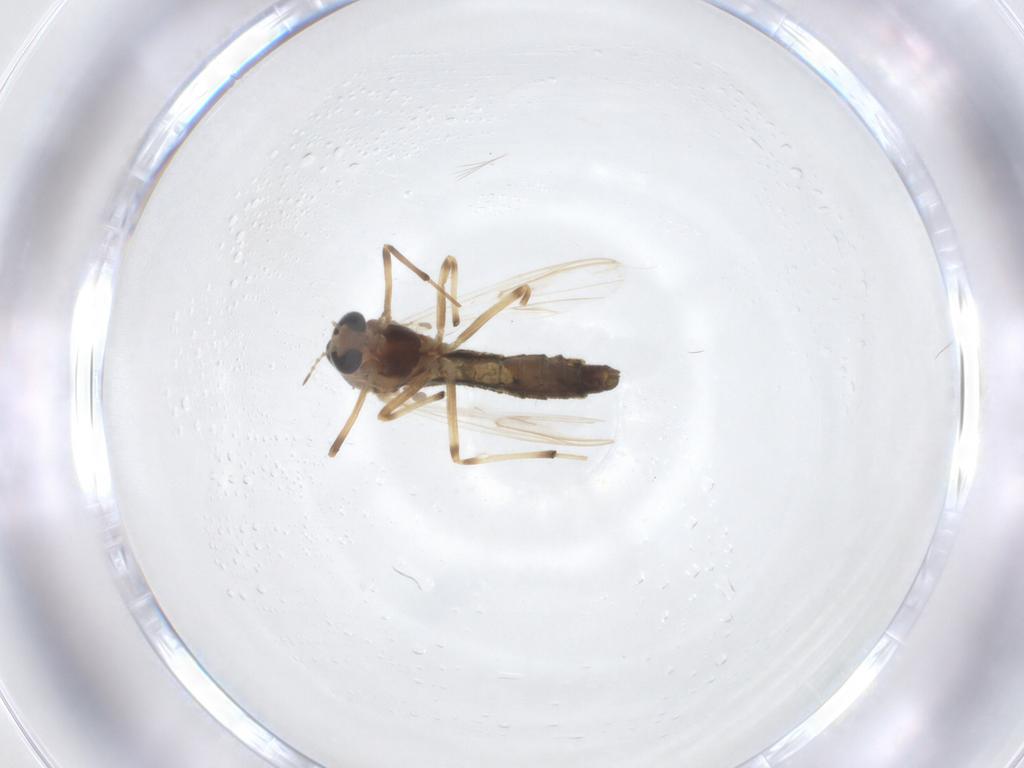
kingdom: Animalia
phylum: Arthropoda
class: Insecta
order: Diptera
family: Chironomidae
